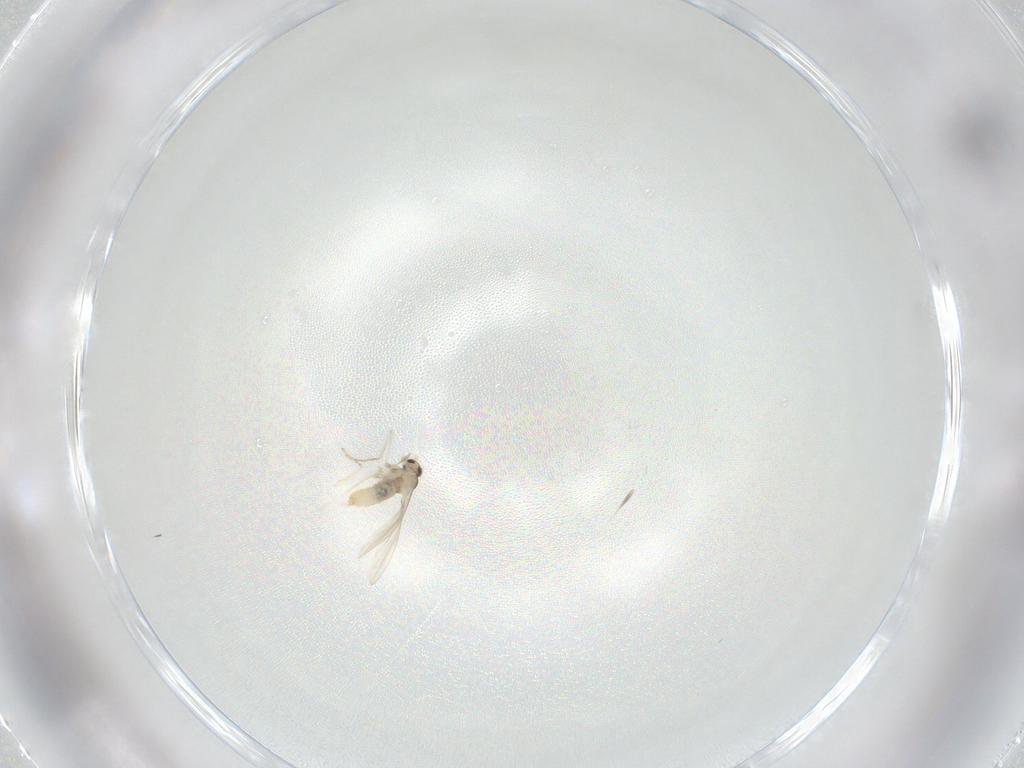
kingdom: Animalia
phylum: Arthropoda
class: Insecta
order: Diptera
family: Cecidomyiidae
